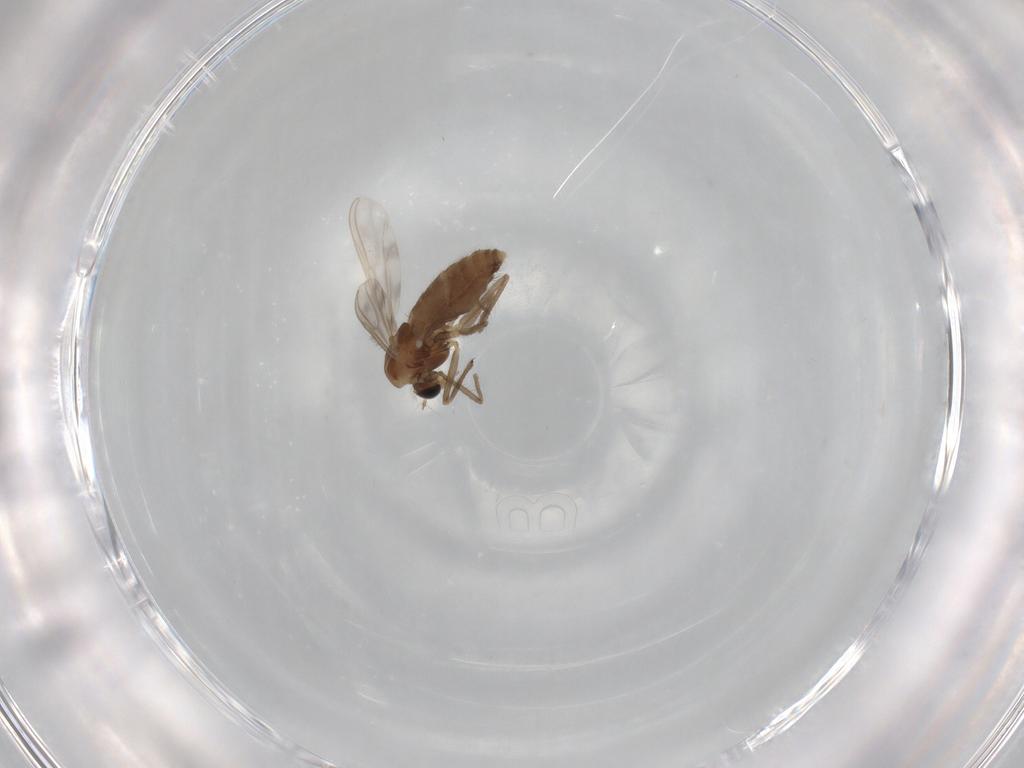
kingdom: Animalia
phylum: Arthropoda
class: Insecta
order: Diptera
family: Chironomidae
